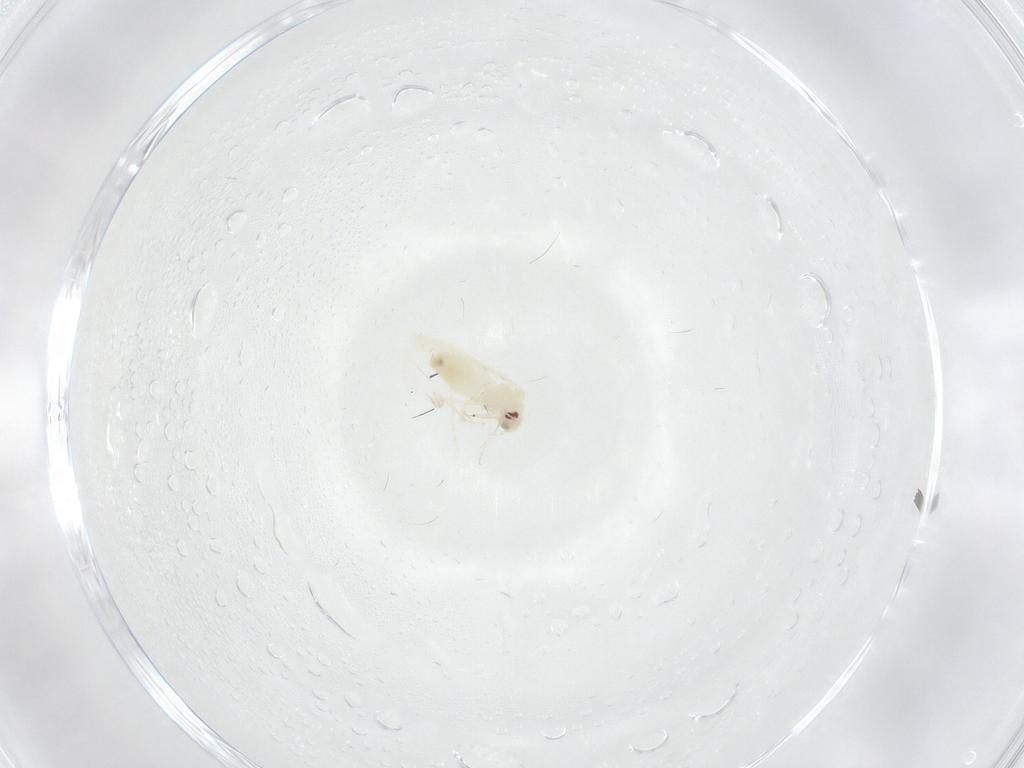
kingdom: Animalia
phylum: Arthropoda
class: Insecta
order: Hemiptera
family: Aleyrodidae
